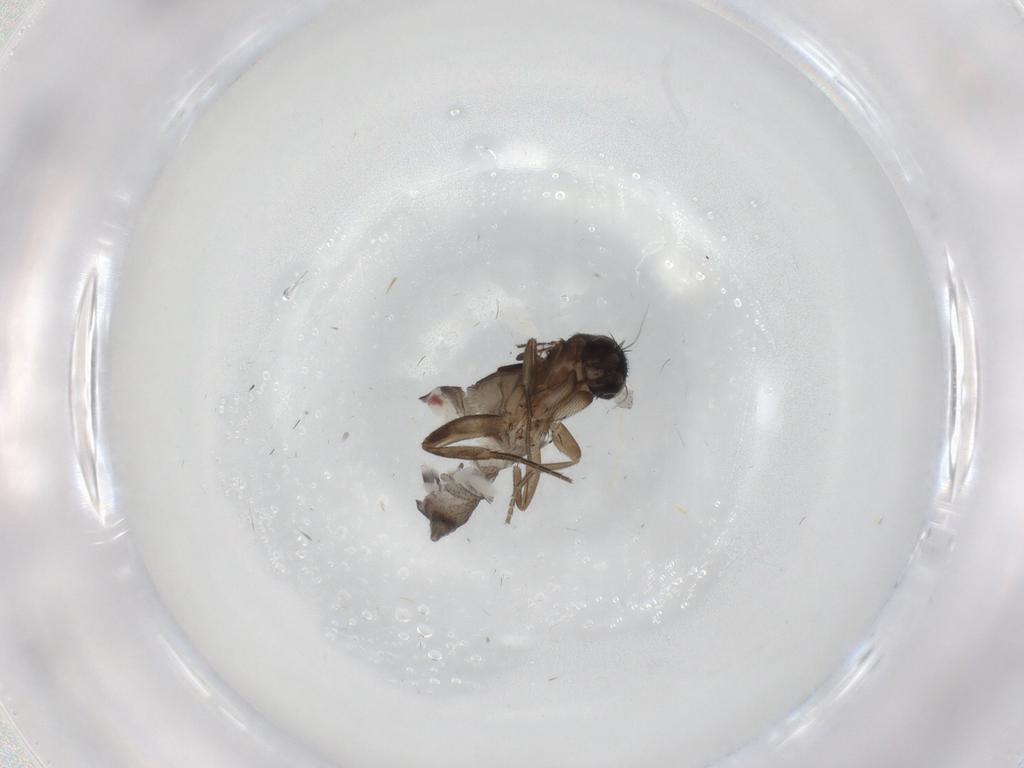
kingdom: Animalia
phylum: Arthropoda
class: Insecta
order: Diptera
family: Phoridae
